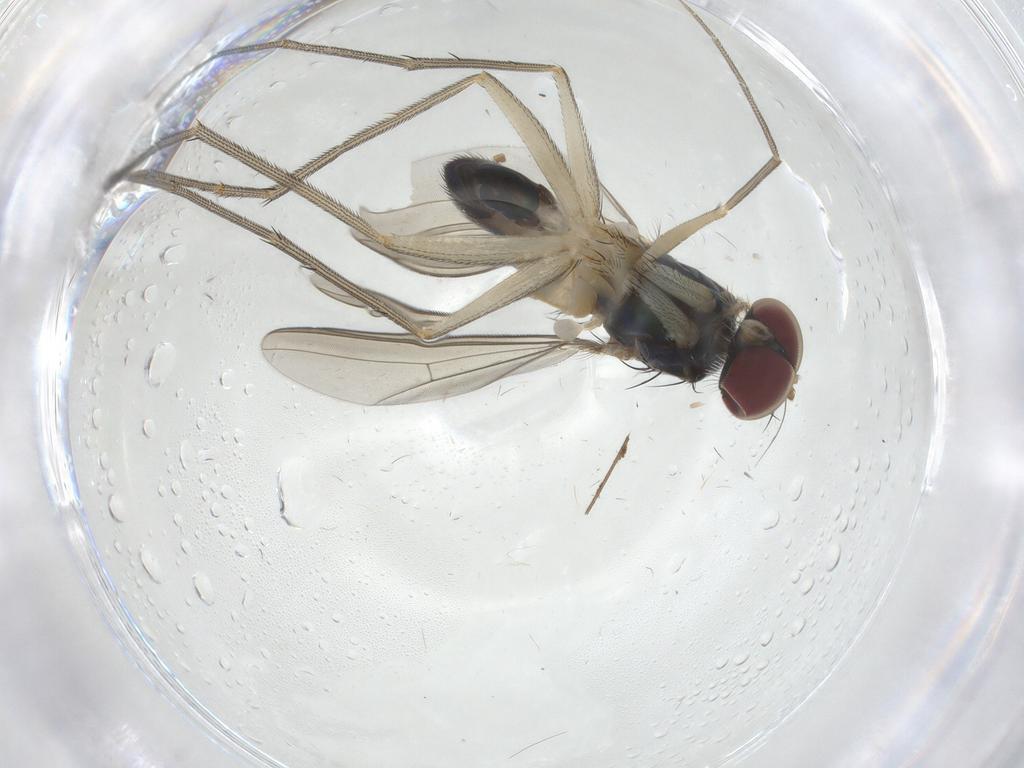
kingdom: Animalia
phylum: Arthropoda
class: Insecta
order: Diptera
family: Dolichopodidae
